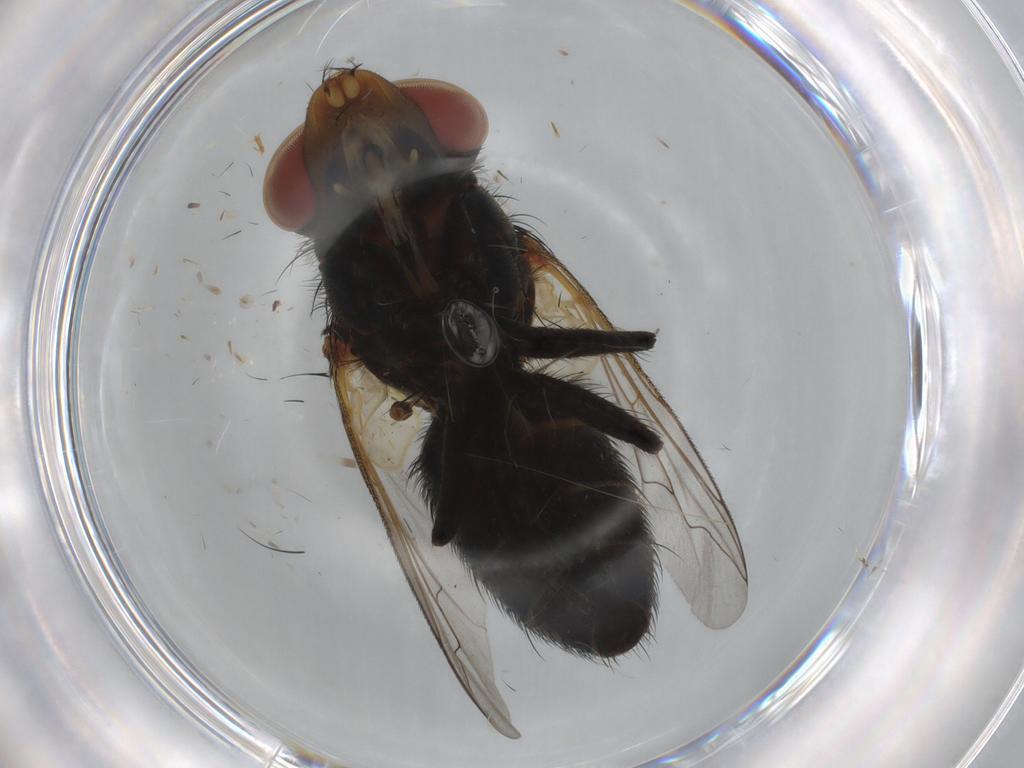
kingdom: Animalia
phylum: Arthropoda
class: Insecta
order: Diptera
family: Sarcophagidae
